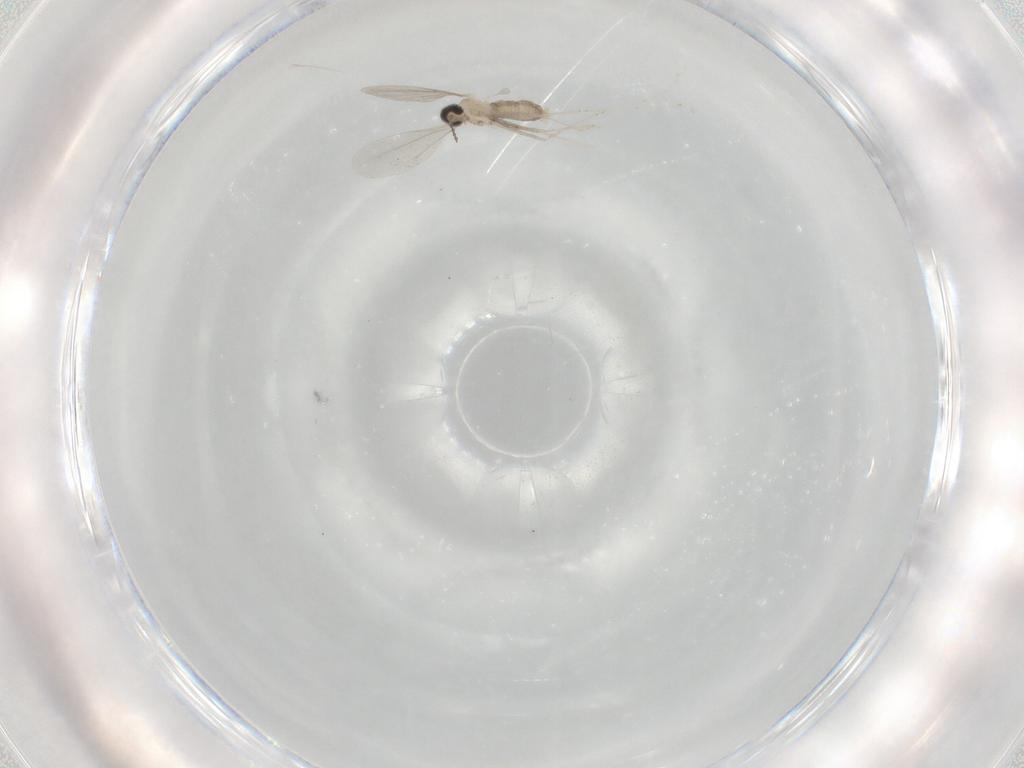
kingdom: Animalia
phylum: Arthropoda
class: Insecta
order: Diptera
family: Cecidomyiidae
